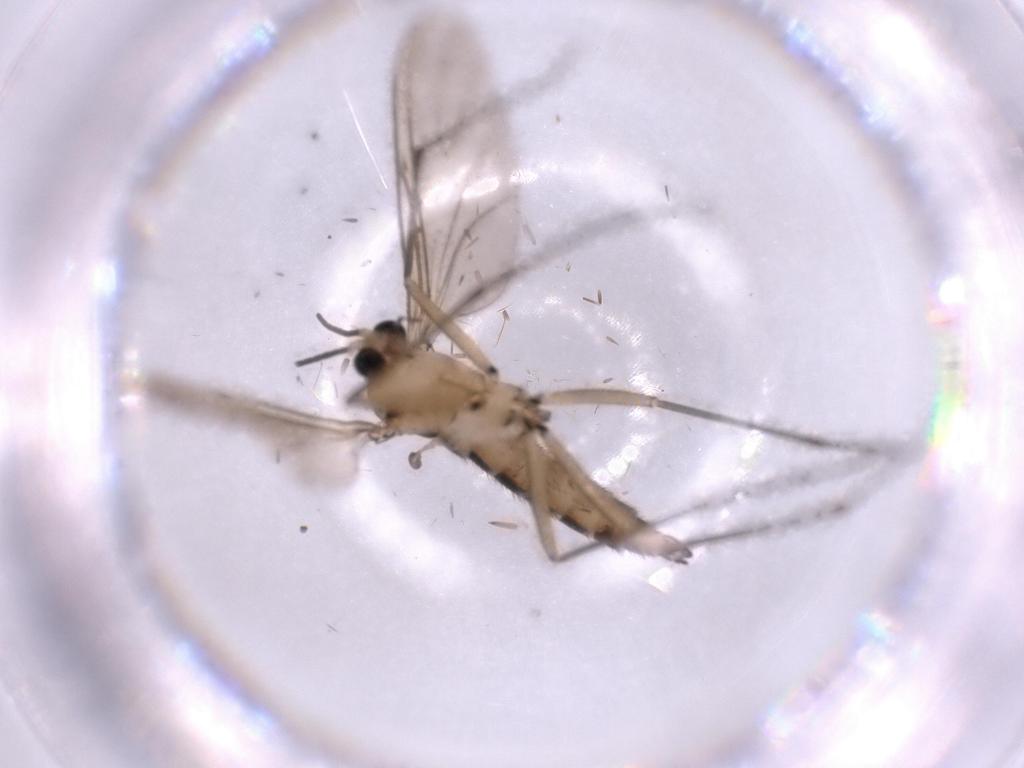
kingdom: Animalia
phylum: Arthropoda
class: Insecta
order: Diptera
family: Sciaridae
